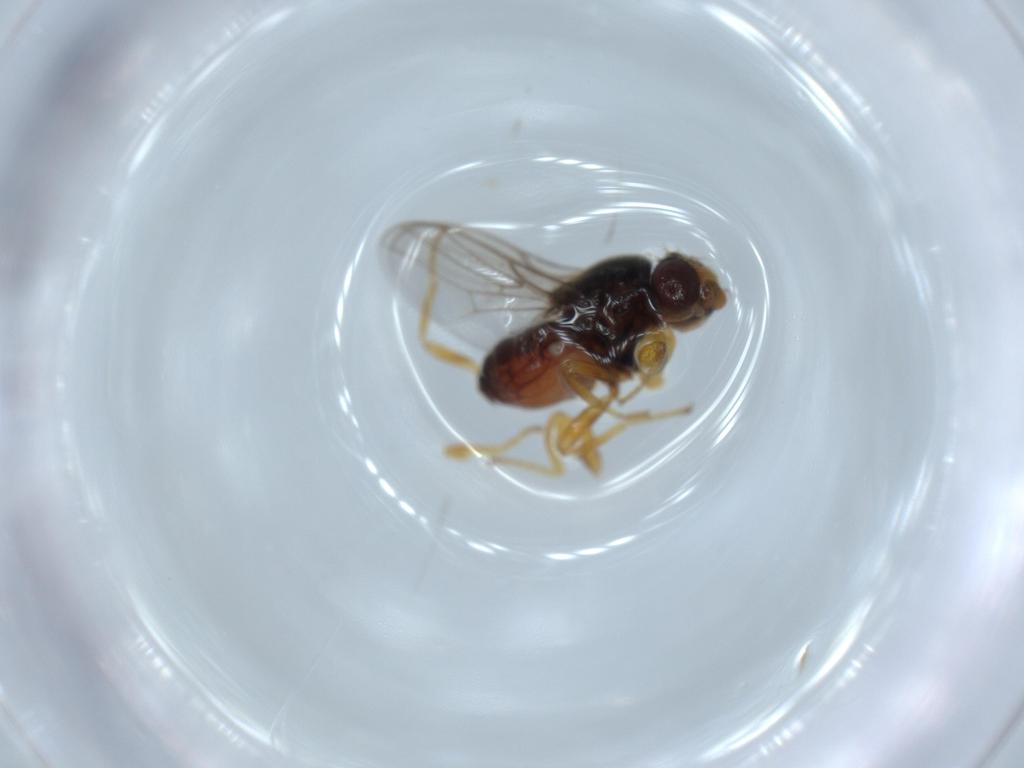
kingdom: Animalia
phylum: Arthropoda
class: Insecta
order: Diptera
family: Chloropidae
